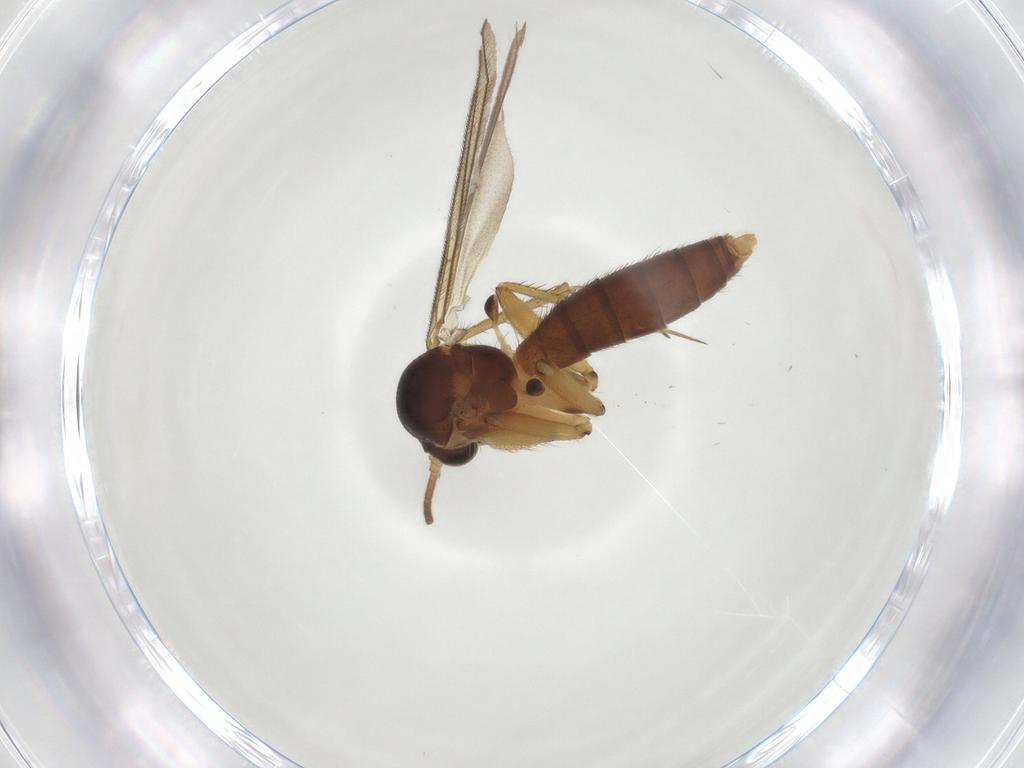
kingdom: Animalia
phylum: Arthropoda
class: Insecta
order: Diptera
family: Mycetophilidae
